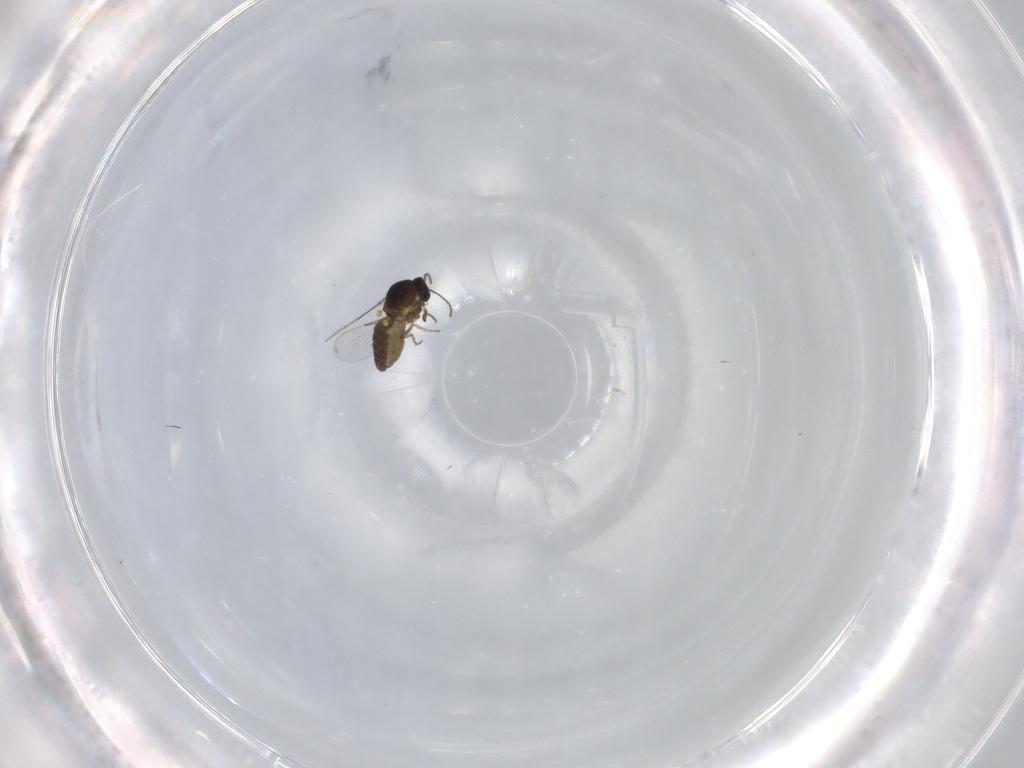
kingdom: Animalia
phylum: Arthropoda
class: Insecta
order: Diptera
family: Ceratopogonidae
